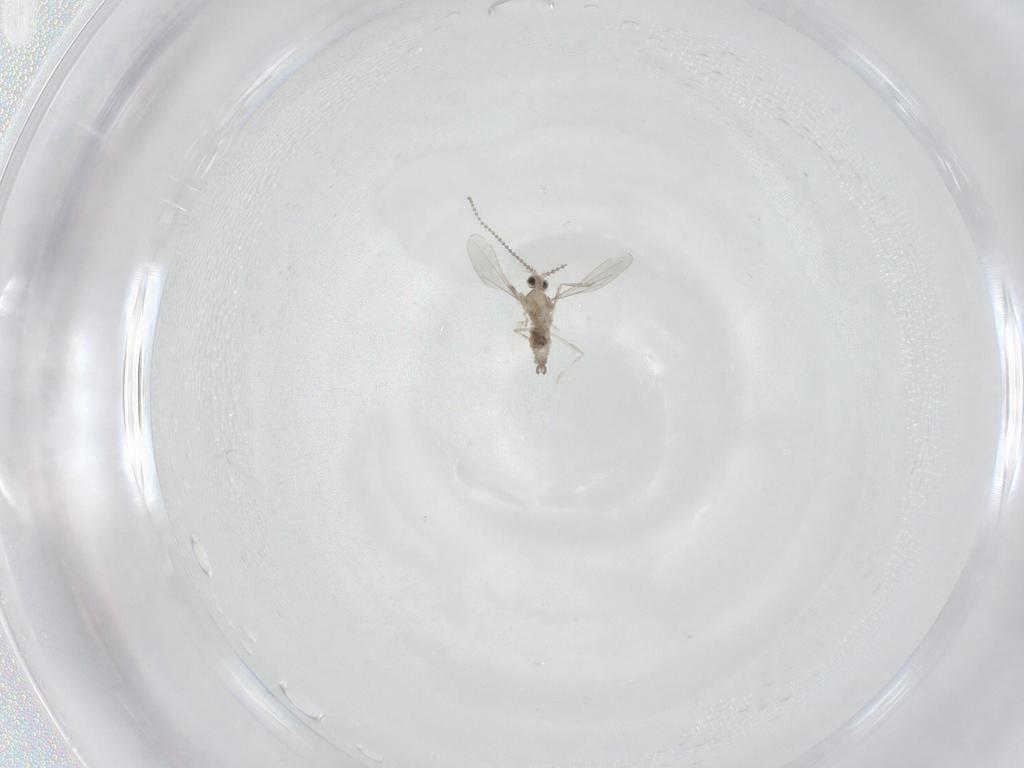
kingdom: Animalia
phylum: Arthropoda
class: Insecta
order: Diptera
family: Cecidomyiidae
